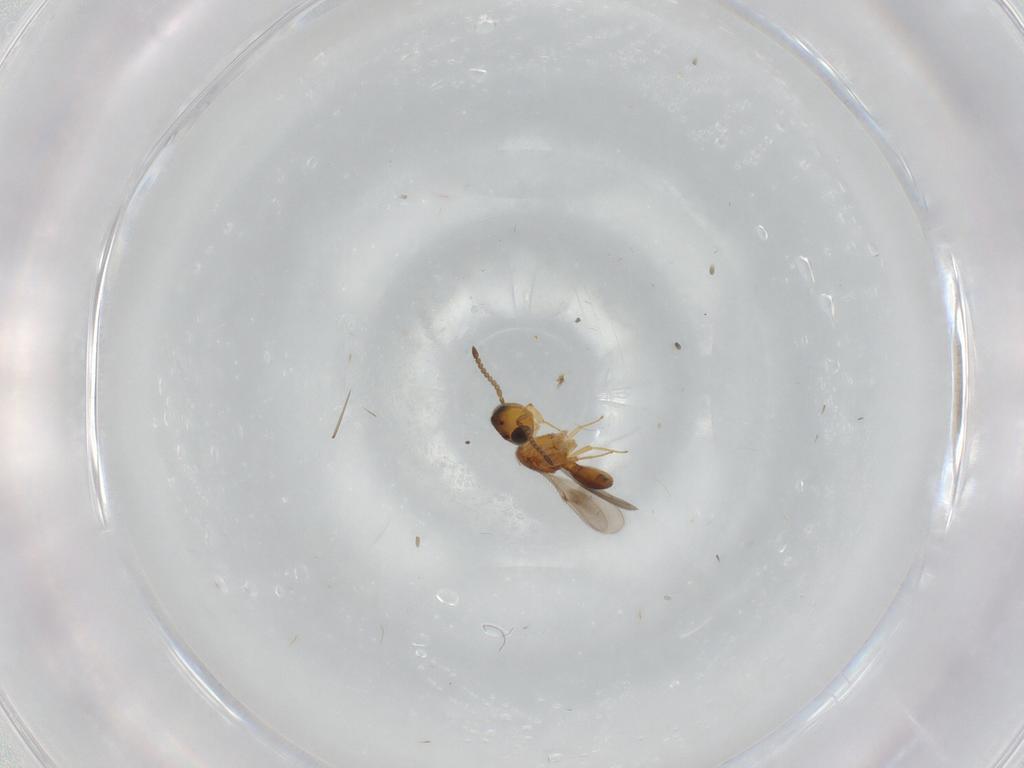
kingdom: Animalia
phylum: Arthropoda
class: Insecta
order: Hymenoptera
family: Scelionidae
